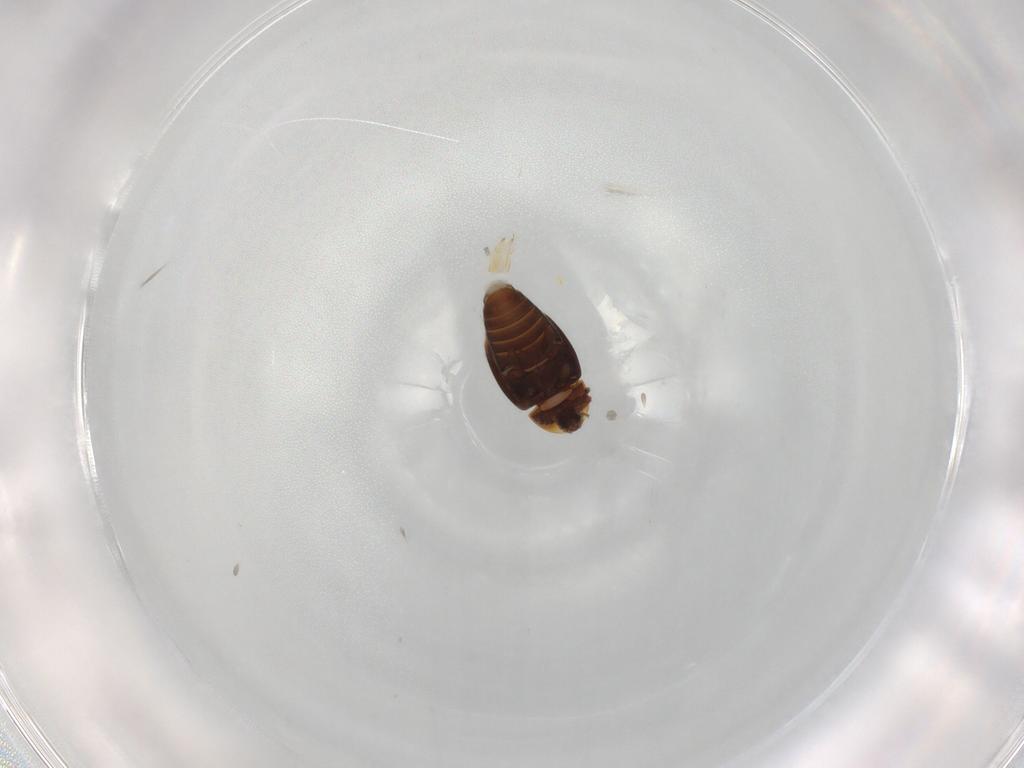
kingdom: Animalia
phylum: Arthropoda
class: Insecta
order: Coleoptera
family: Corylophidae
